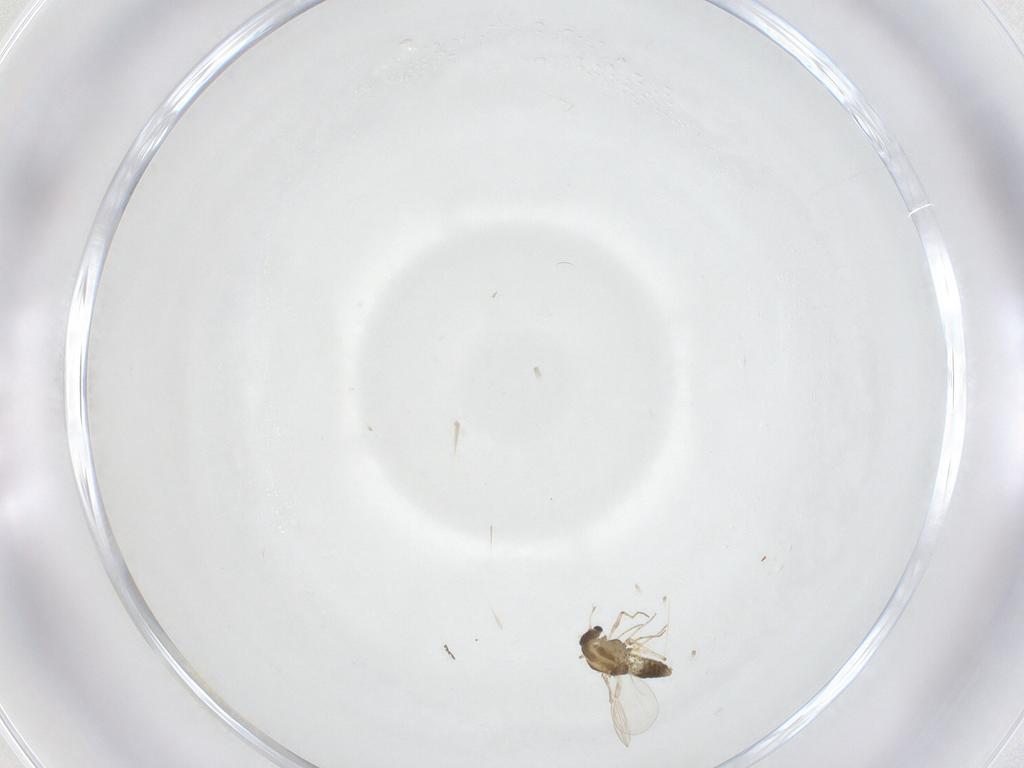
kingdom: Animalia
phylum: Arthropoda
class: Insecta
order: Diptera
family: Chironomidae
